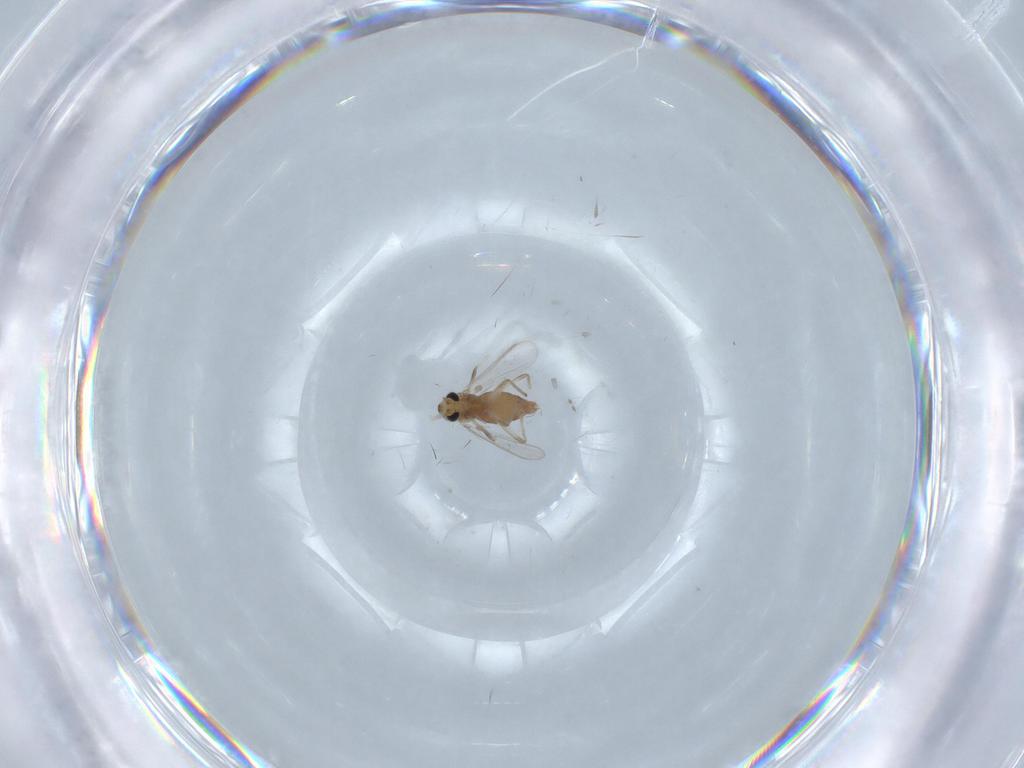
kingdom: Animalia
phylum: Arthropoda
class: Insecta
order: Diptera
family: Chironomidae
